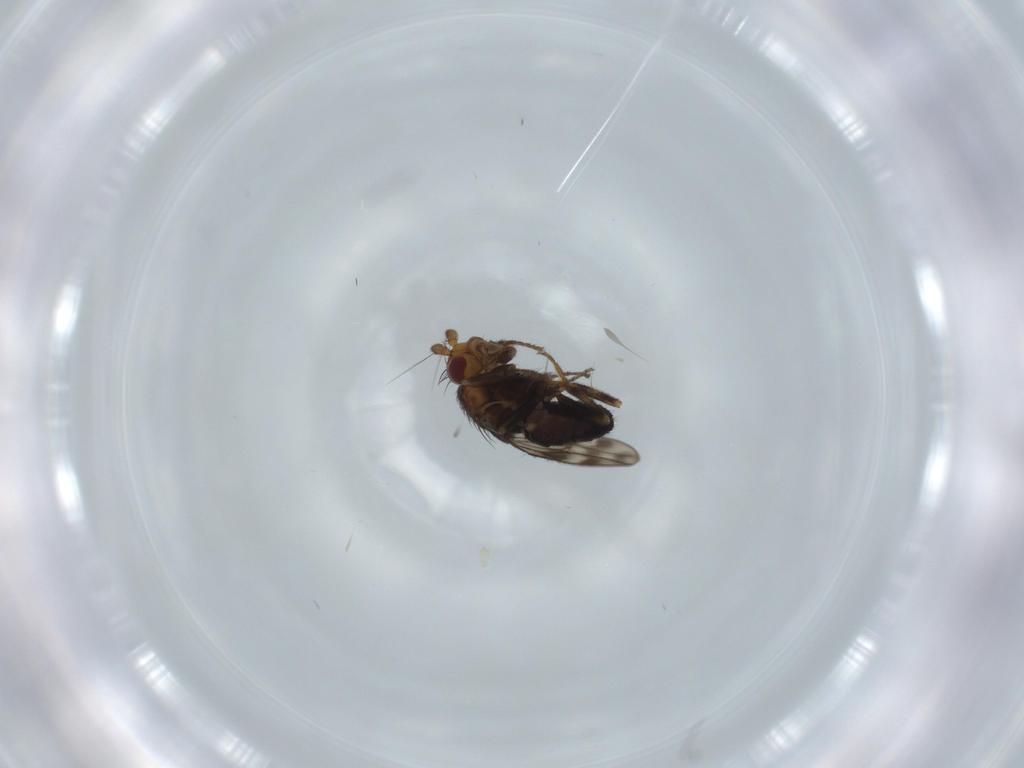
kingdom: Animalia
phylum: Arthropoda
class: Insecta
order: Diptera
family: Sphaeroceridae
